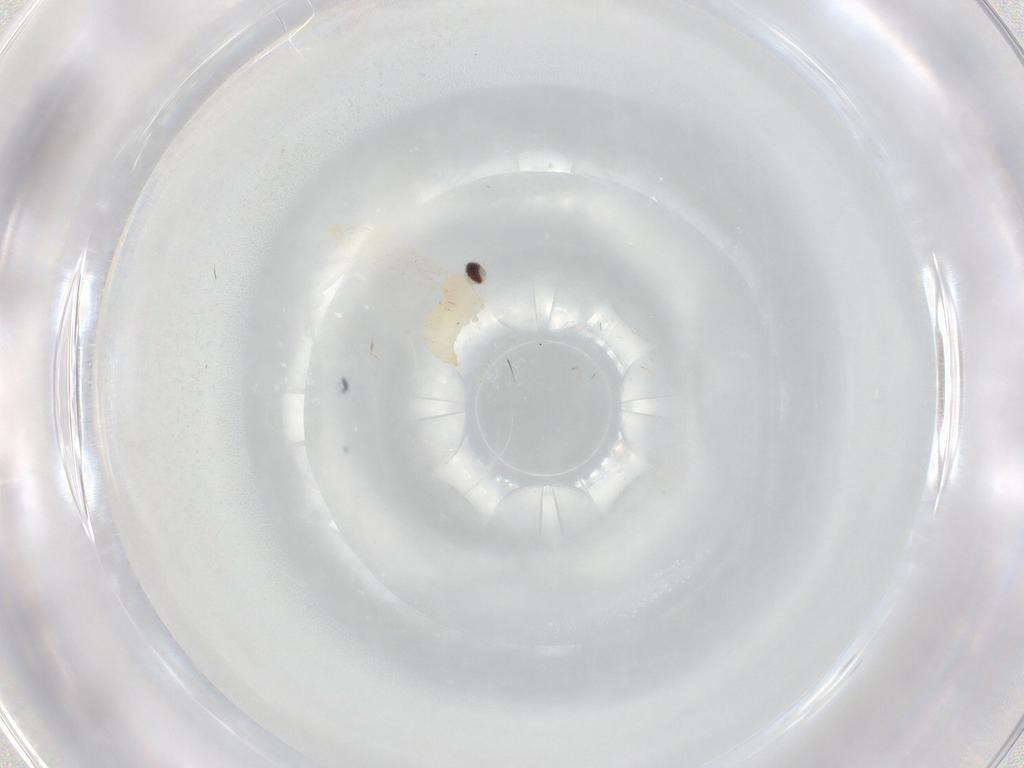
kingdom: Animalia
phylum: Arthropoda
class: Insecta
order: Diptera
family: Cecidomyiidae
